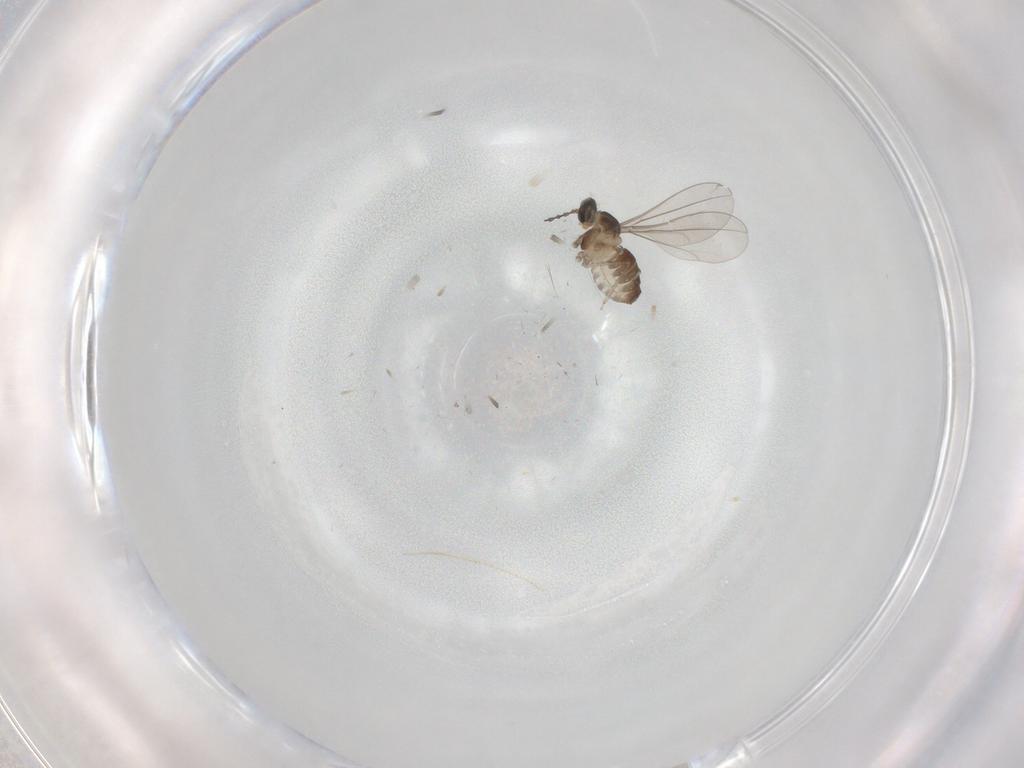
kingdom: Animalia
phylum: Arthropoda
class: Insecta
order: Diptera
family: Cecidomyiidae
